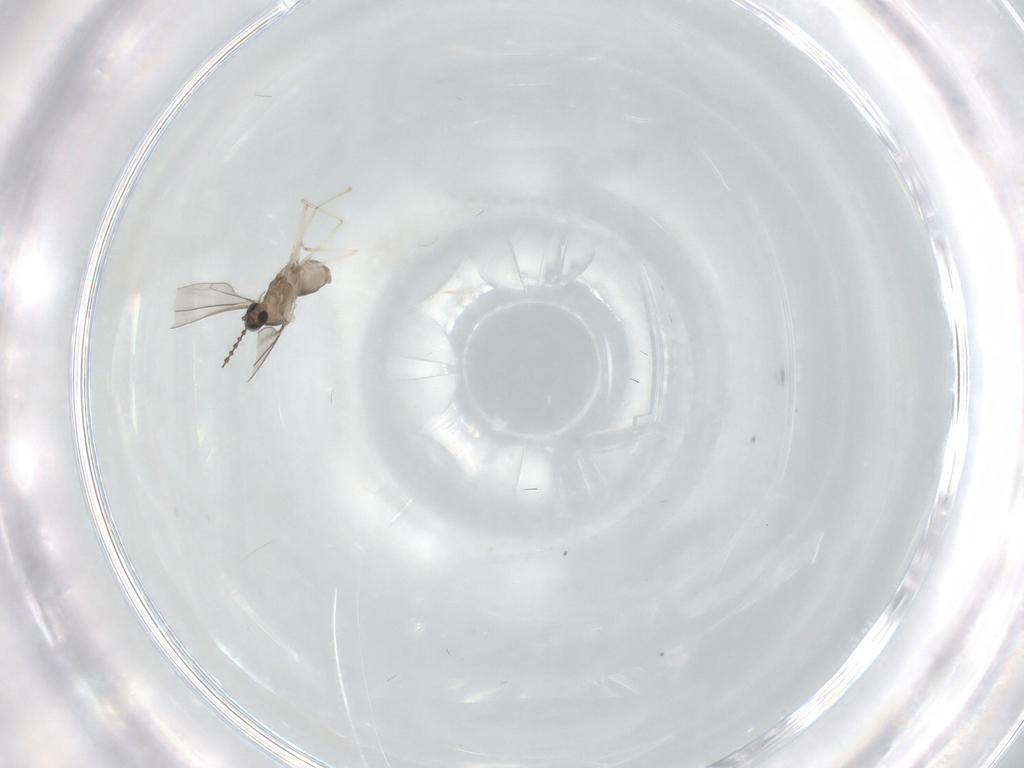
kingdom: Animalia
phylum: Arthropoda
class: Insecta
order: Diptera
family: Cecidomyiidae
